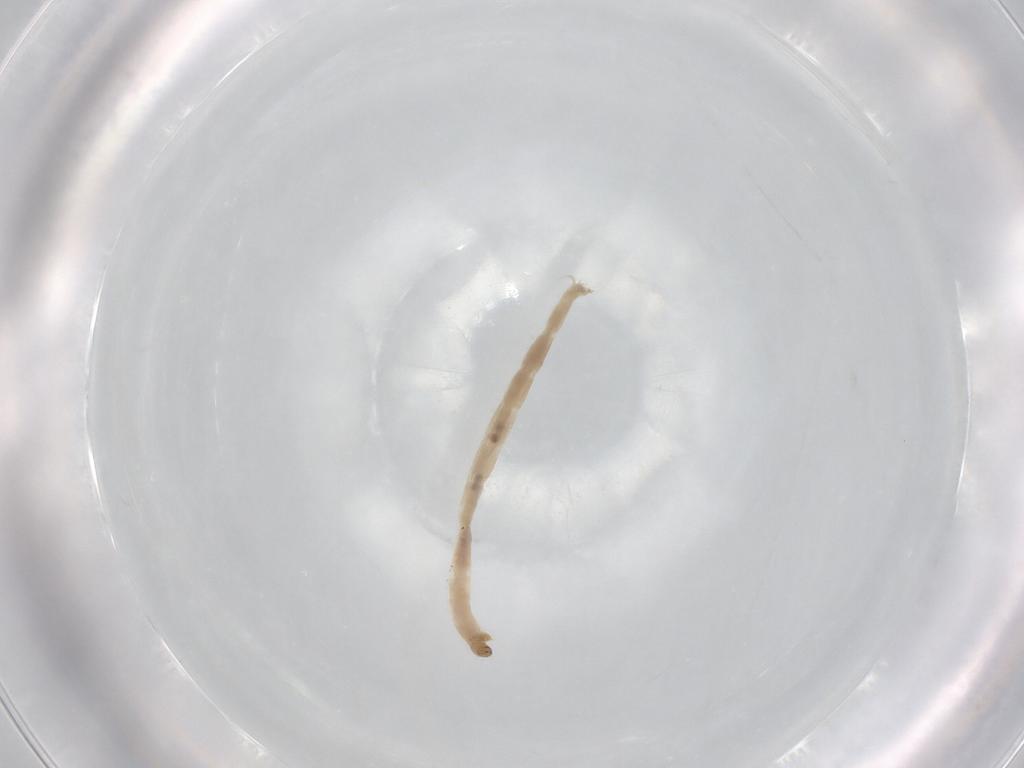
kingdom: Animalia
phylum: Arthropoda
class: Insecta
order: Diptera
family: Chironomidae
